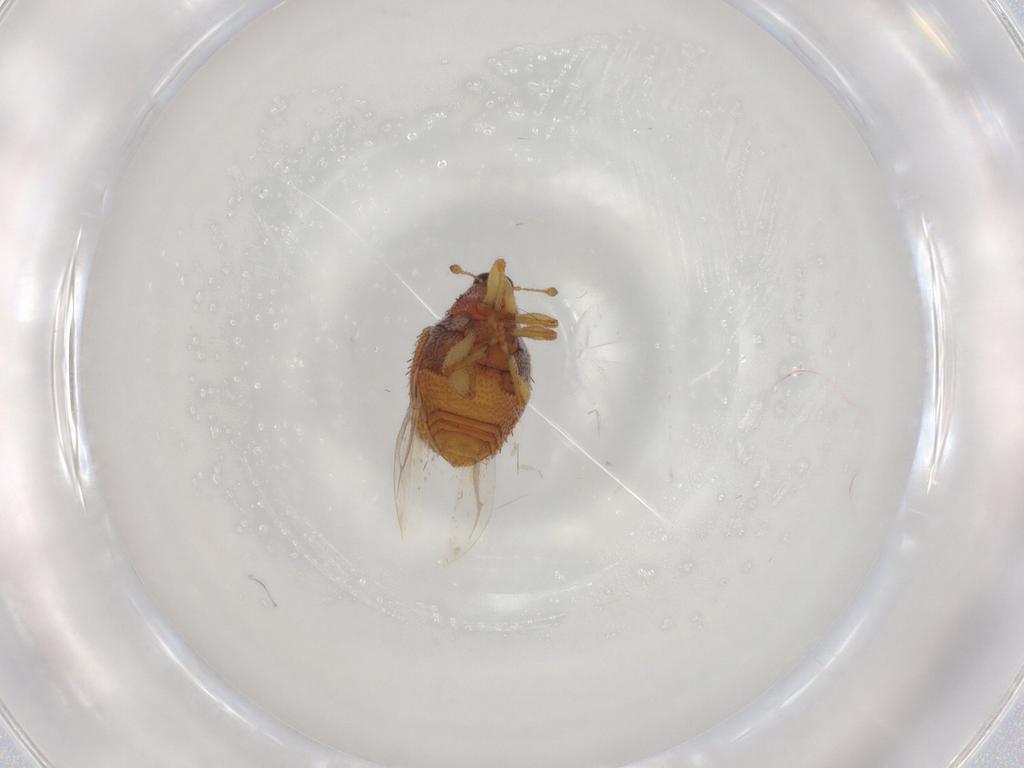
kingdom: Animalia
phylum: Arthropoda
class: Insecta
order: Coleoptera
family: Curculionidae
